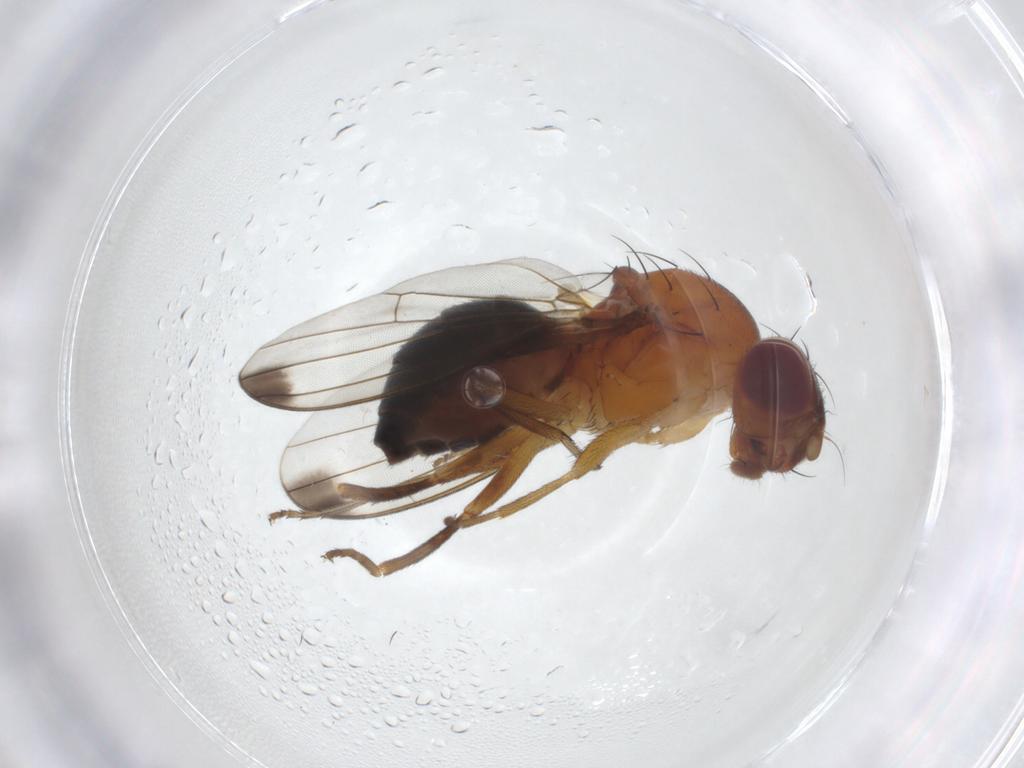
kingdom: Animalia
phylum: Arthropoda
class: Insecta
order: Diptera
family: Piophilidae
